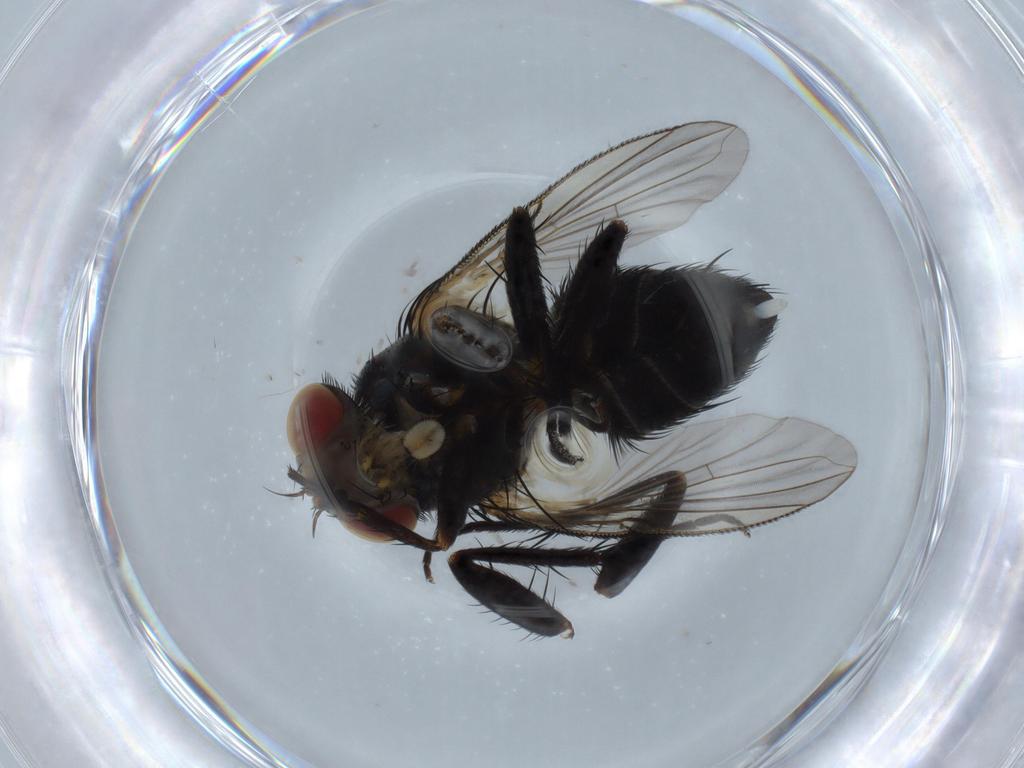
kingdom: Animalia
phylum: Arthropoda
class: Insecta
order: Diptera
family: Tachinidae
